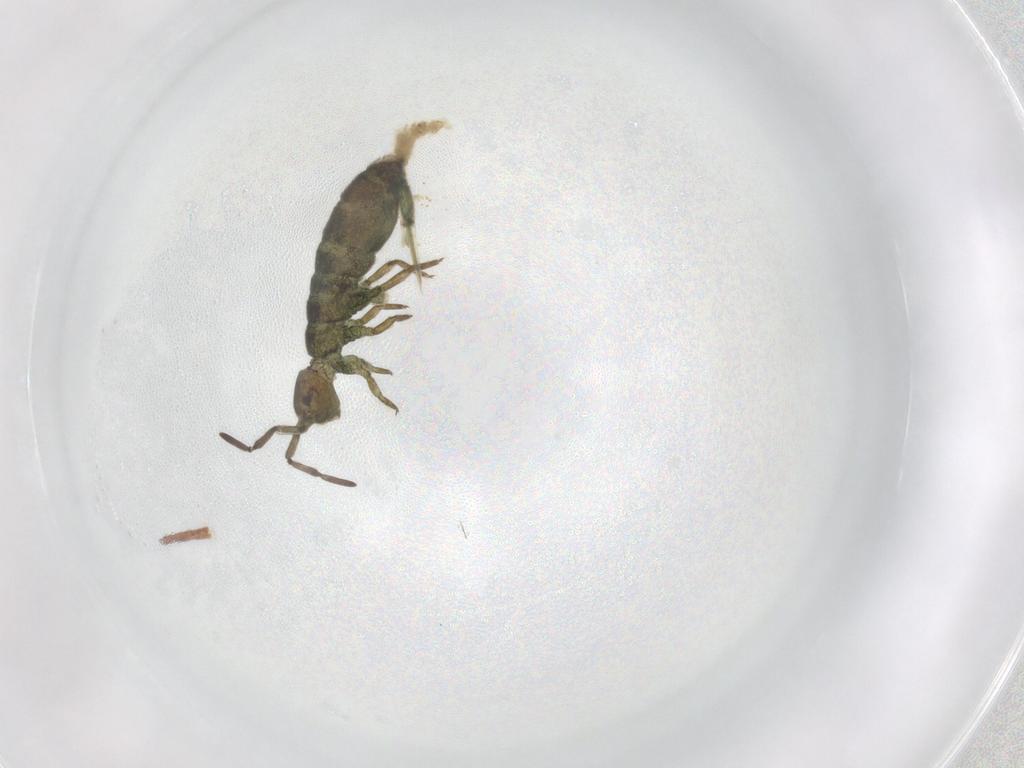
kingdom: Animalia
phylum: Arthropoda
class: Collembola
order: Entomobryomorpha
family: Isotomidae
